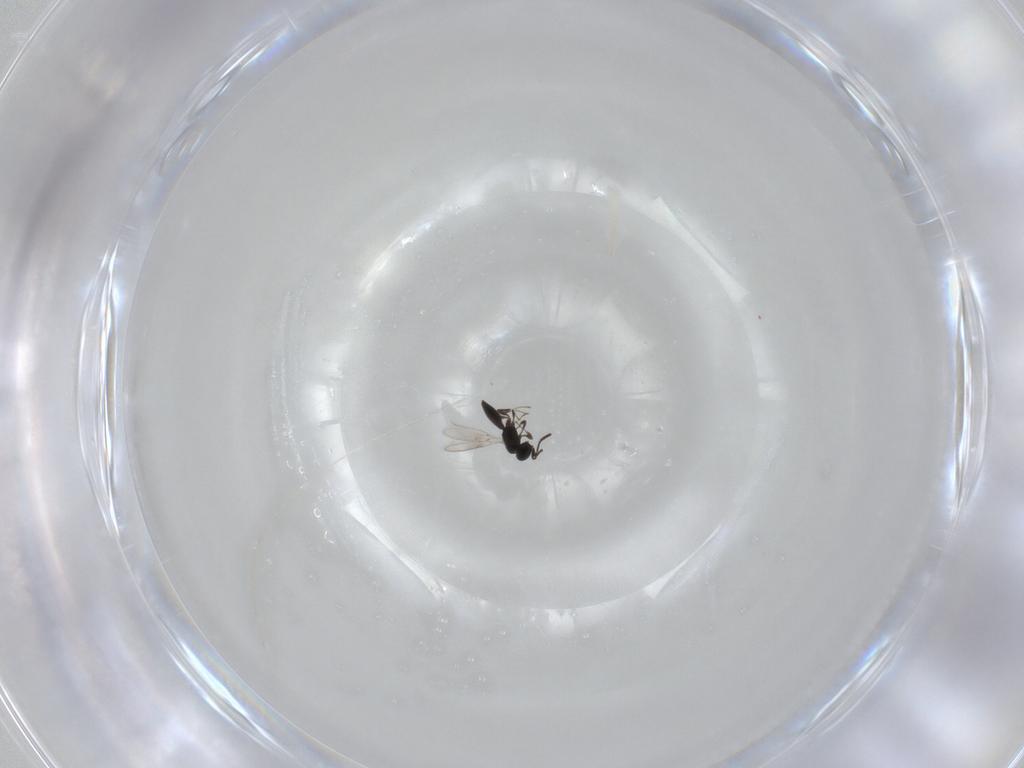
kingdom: Animalia
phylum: Arthropoda
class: Insecta
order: Hymenoptera
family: Scelionidae
